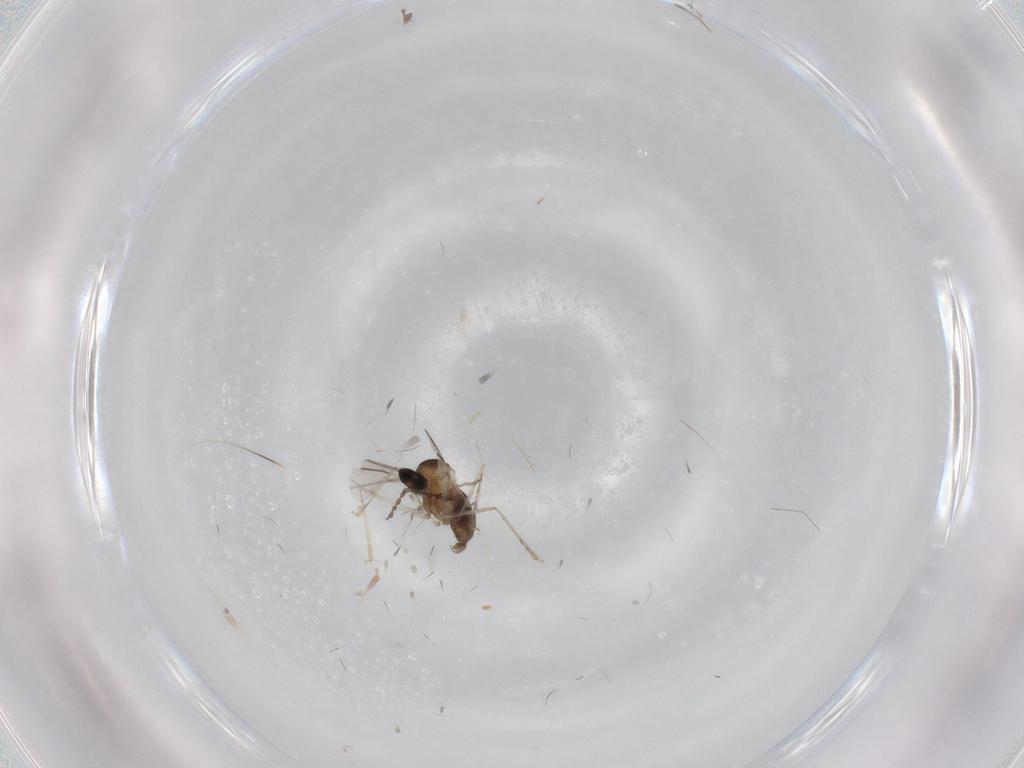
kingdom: Animalia
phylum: Arthropoda
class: Insecta
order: Diptera
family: Cecidomyiidae
